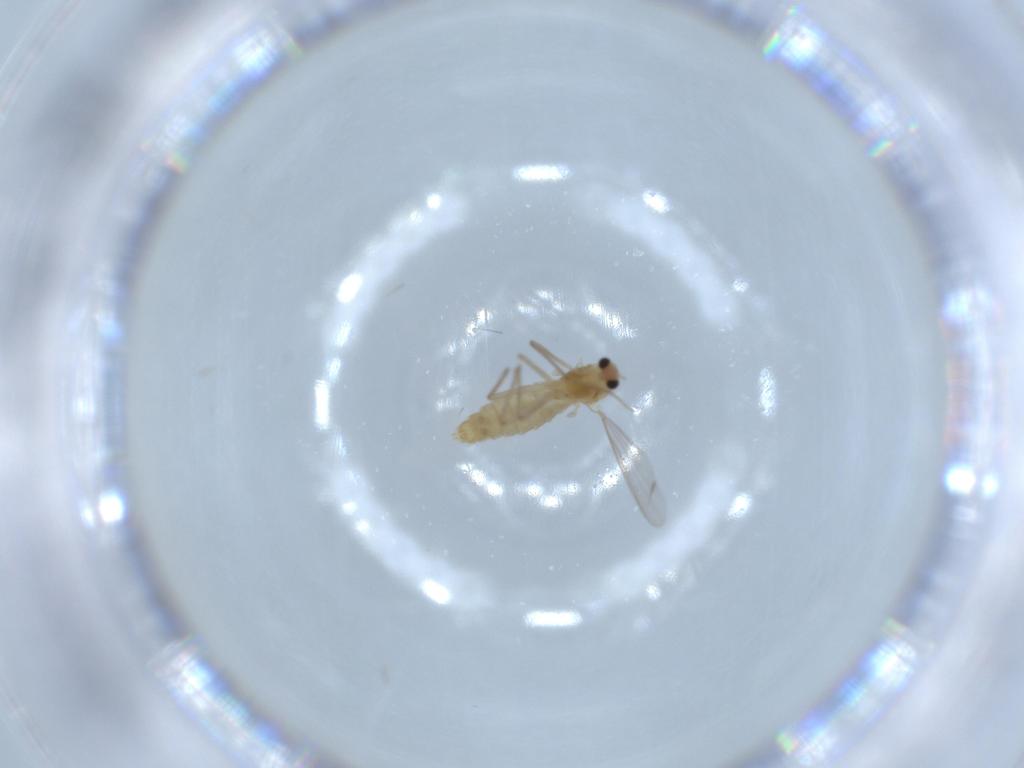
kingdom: Animalia
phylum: Arthropoda
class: Insecta
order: Diptera
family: Chironomidae
